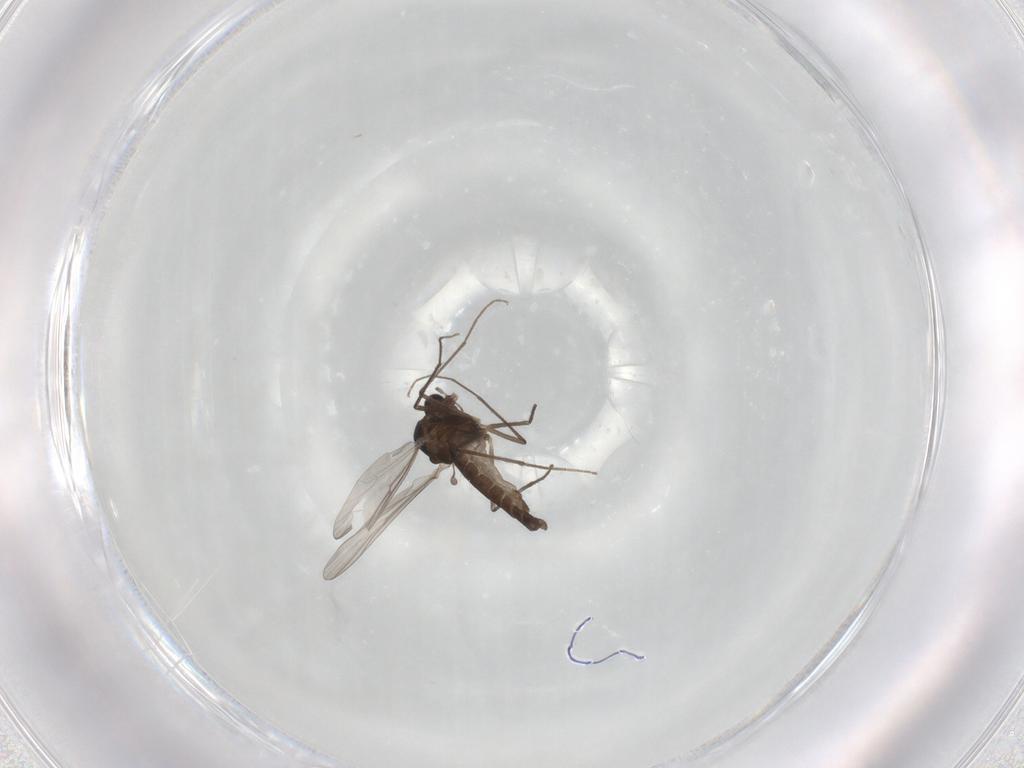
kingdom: Animalia
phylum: Arthropoda
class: Insecta
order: Diptera
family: Chironomidae
